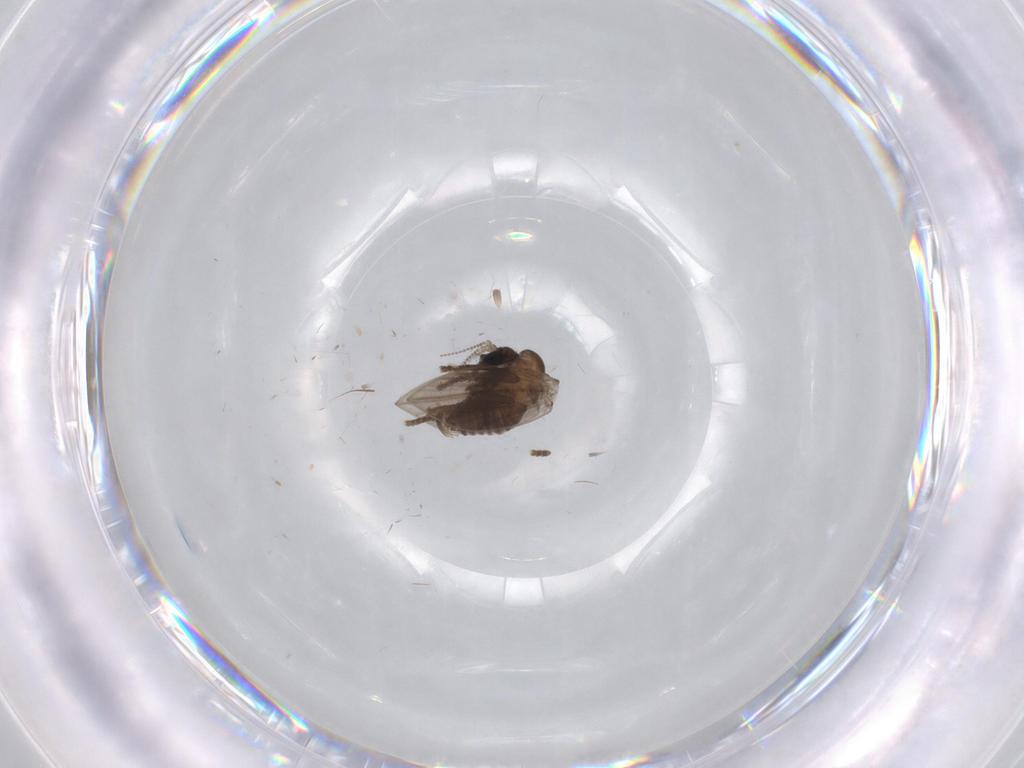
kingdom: Animalia
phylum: Arthropoda
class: Insecta
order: Diptera
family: Psychodidae
